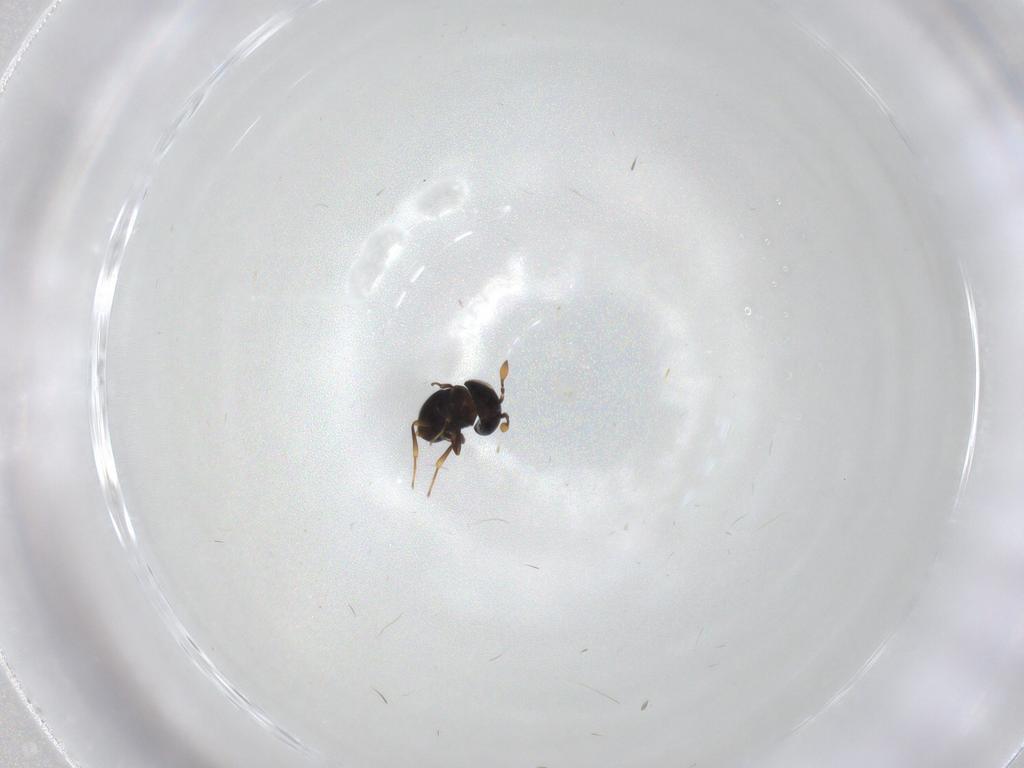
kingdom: Animalia
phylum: Arthropoda
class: Insecta
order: Hymenoptera
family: Scelionidae
